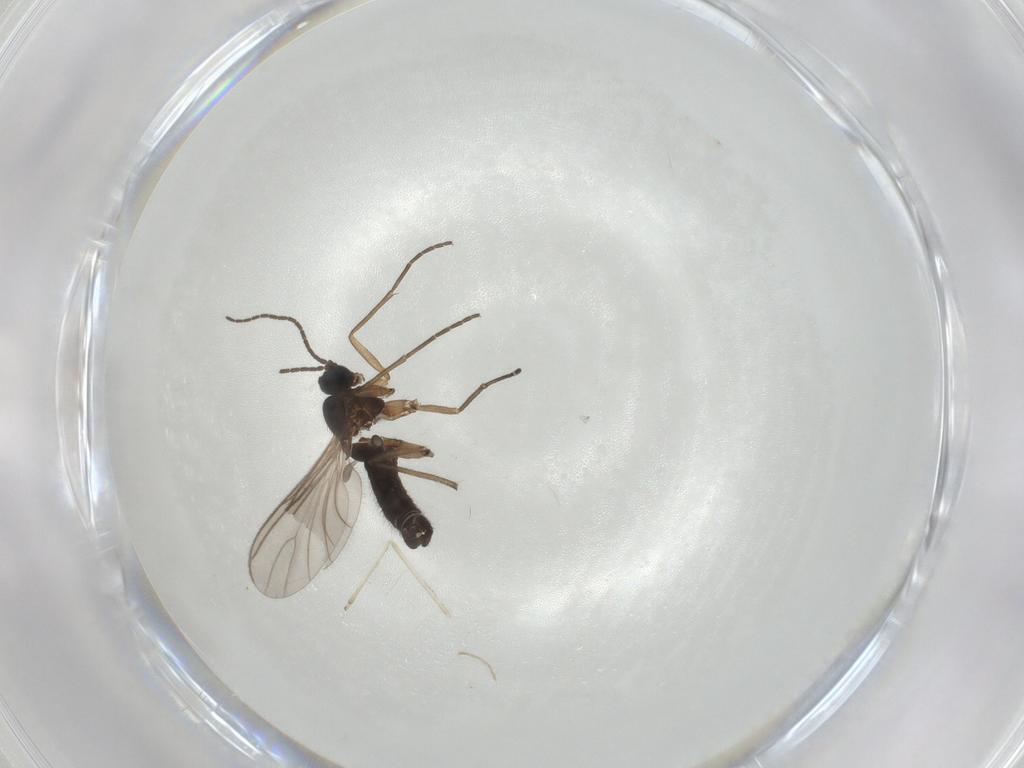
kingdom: Animalia
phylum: Arthropoda
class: Insecta
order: Diptera
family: Sciaridae
